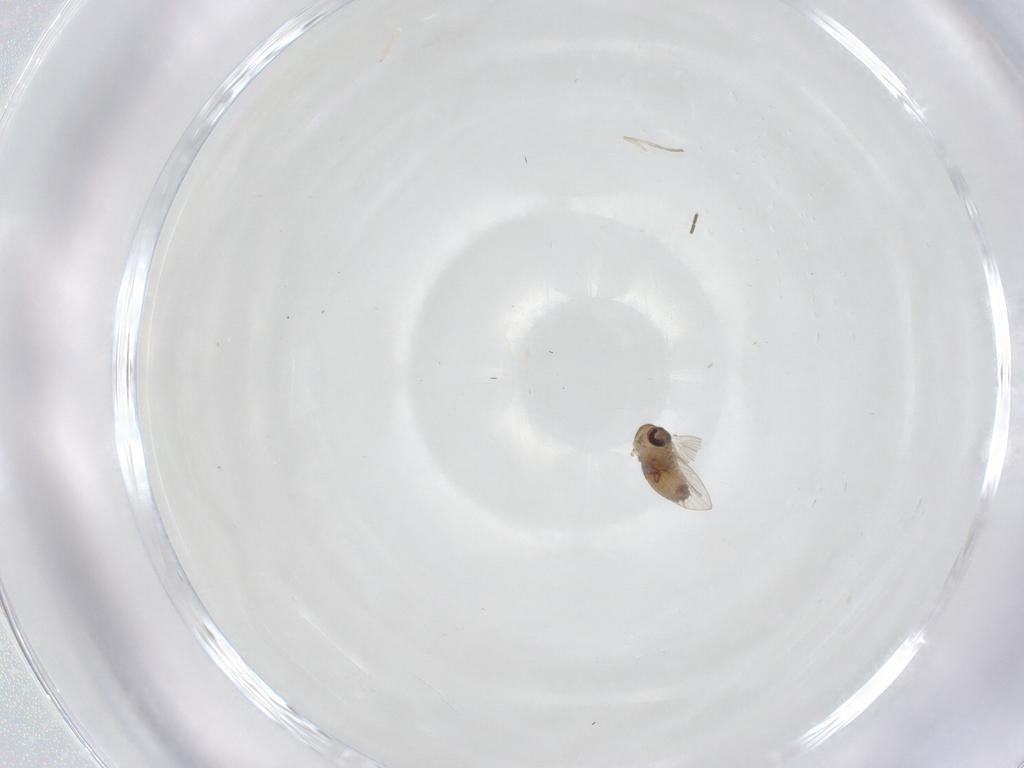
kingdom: Animalia
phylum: Arthropoda
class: Insecta
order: Diptera
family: Psychodidae
